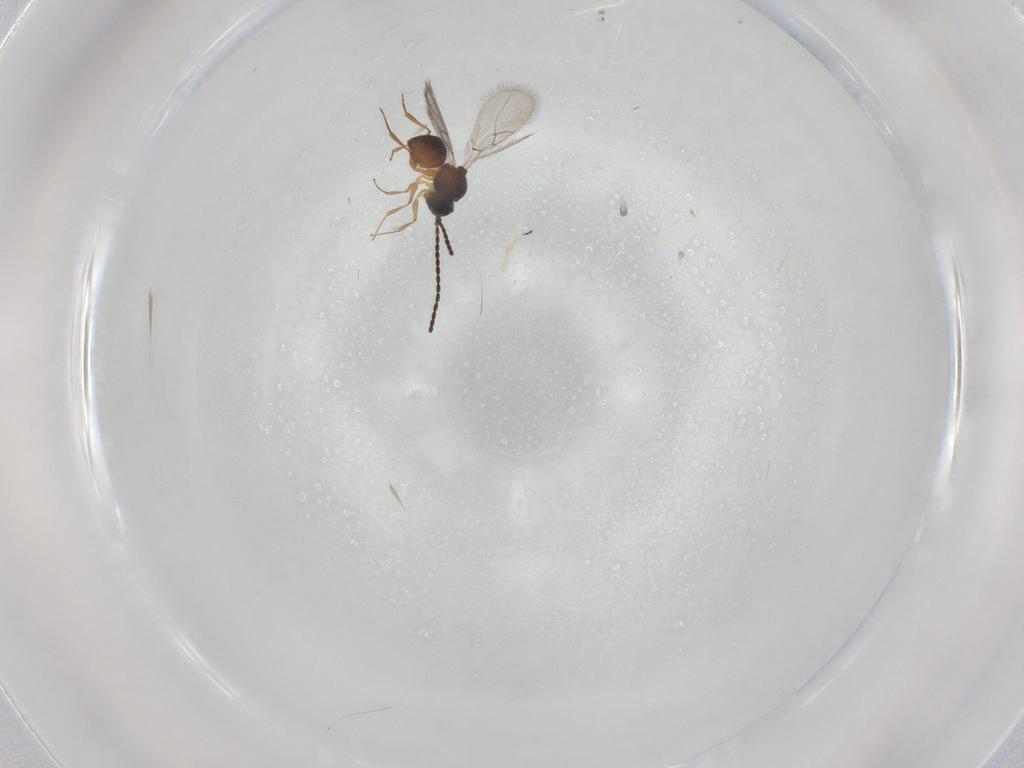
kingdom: Animalia
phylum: Arthropoda
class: Insecta
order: Hymenoptera
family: Figitidae
